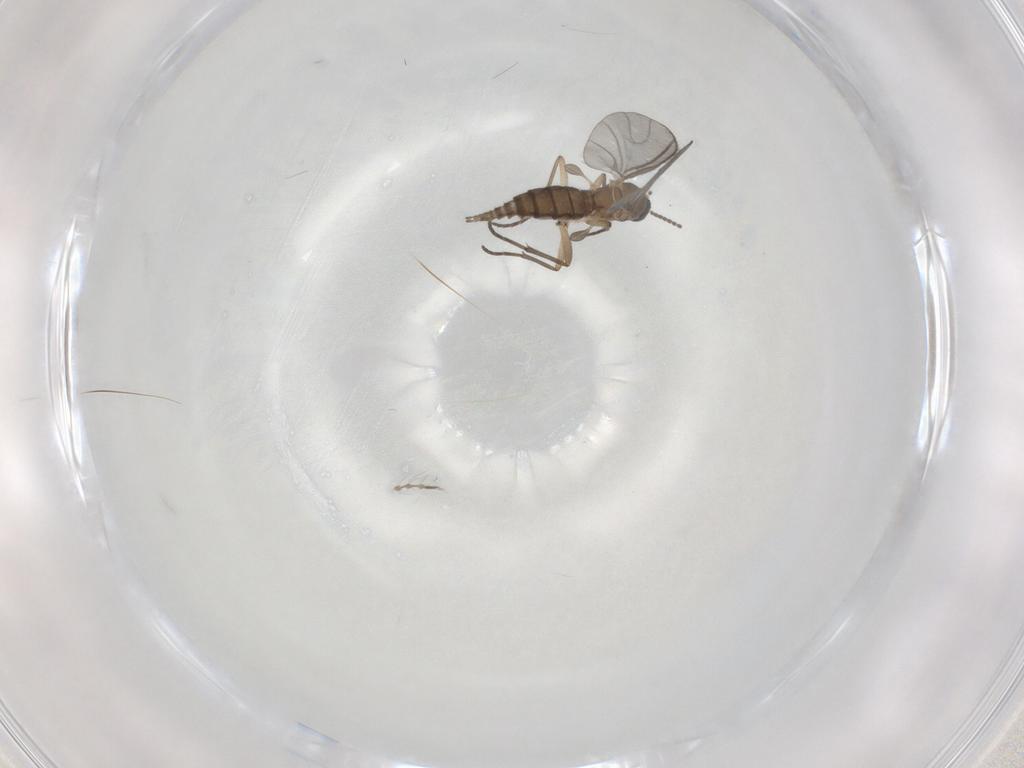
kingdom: Animalia
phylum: Arthropoda
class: Insecta
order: Diptera
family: Sciaridae
